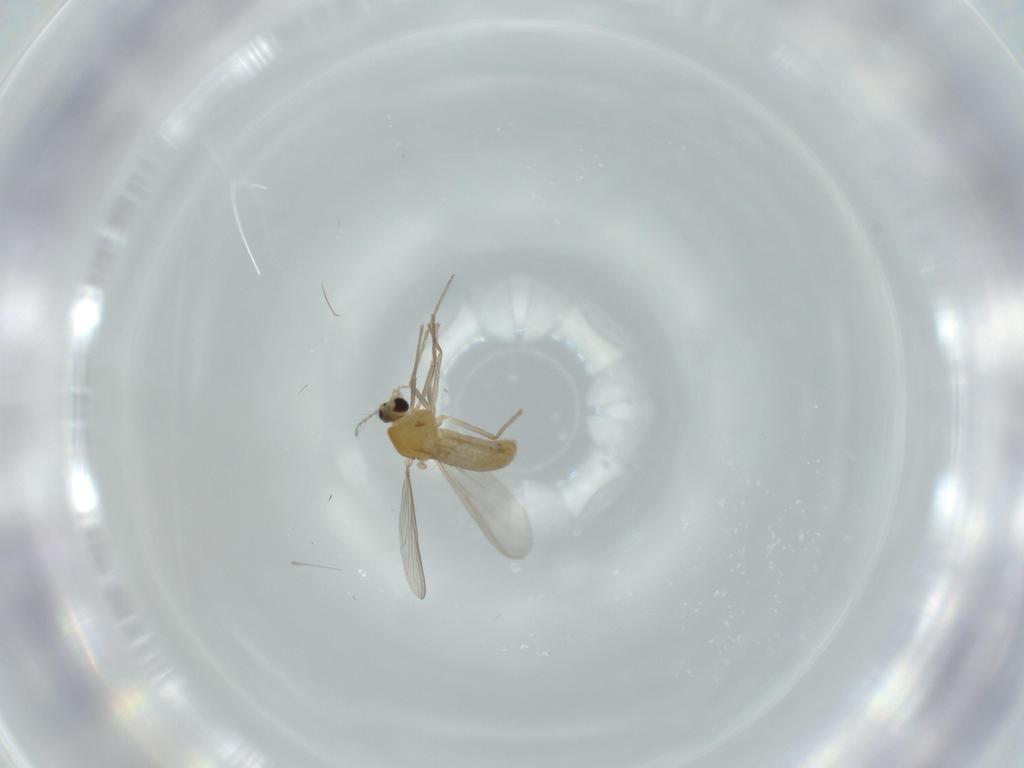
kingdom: Animalia
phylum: Arthropoda
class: Insecta
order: Diptera
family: Chironomidae
